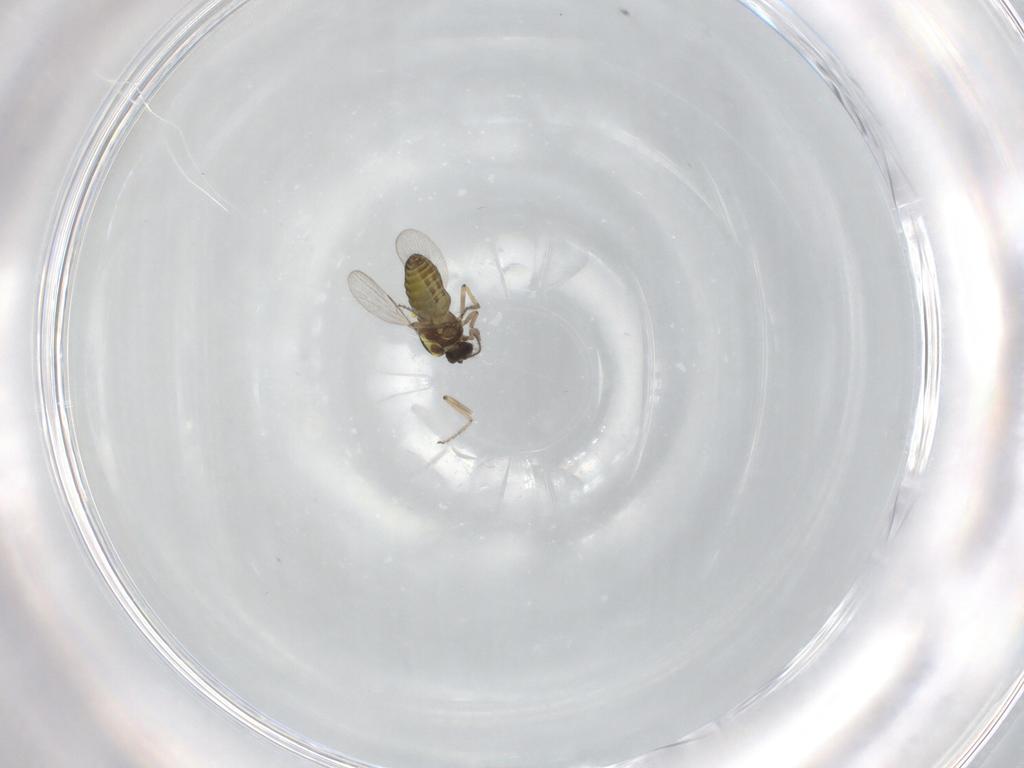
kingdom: Animalia
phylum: Arthropoda
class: Insecta
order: Diptera
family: Ceratopogonidae
